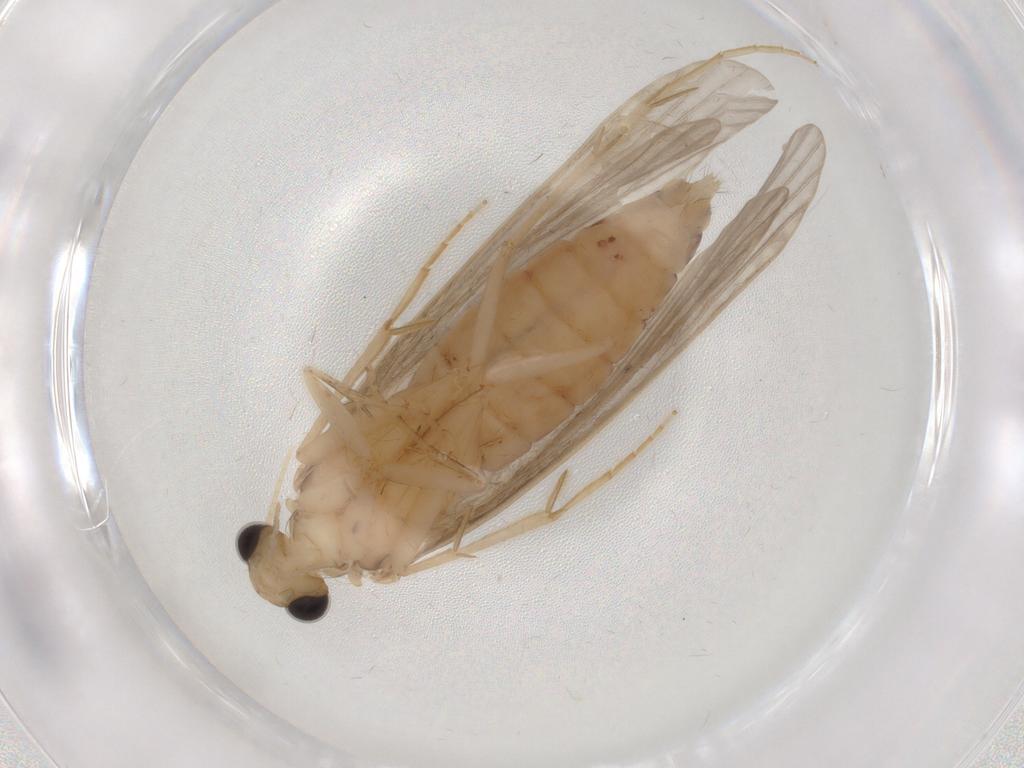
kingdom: Animalia
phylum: Arthropoda
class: Insecta
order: Trichoptera
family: Ecnomidae
